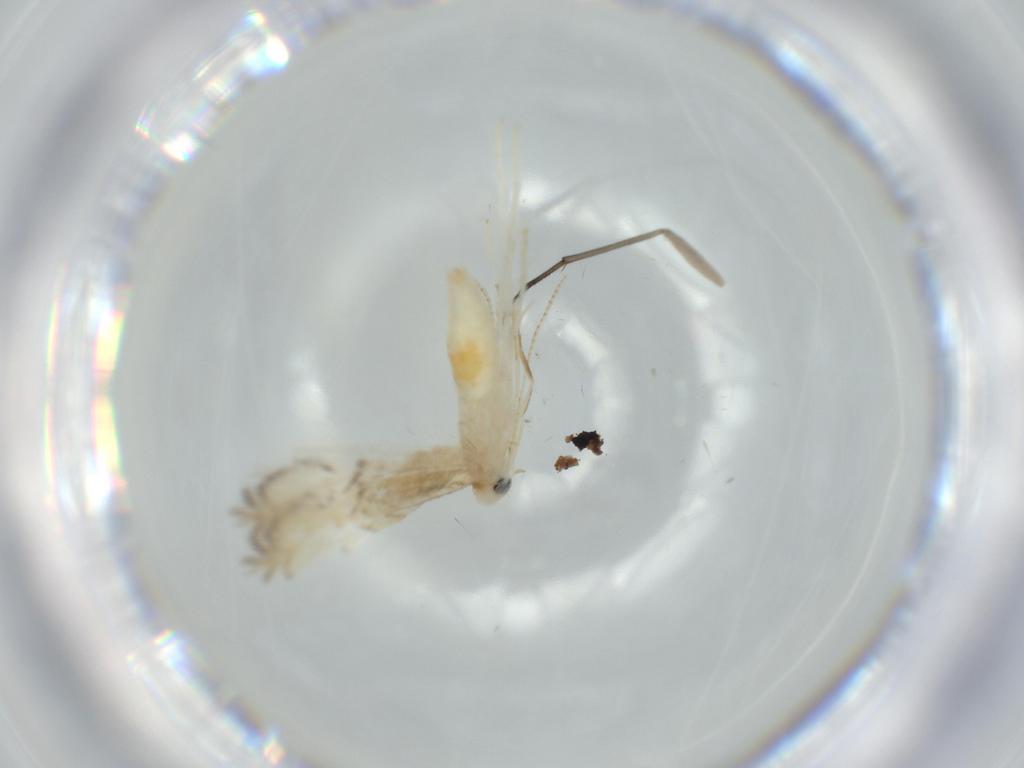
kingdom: Animalia
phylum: Arthropoda
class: Insecta
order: Lepidoptera
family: Gracillariidae
